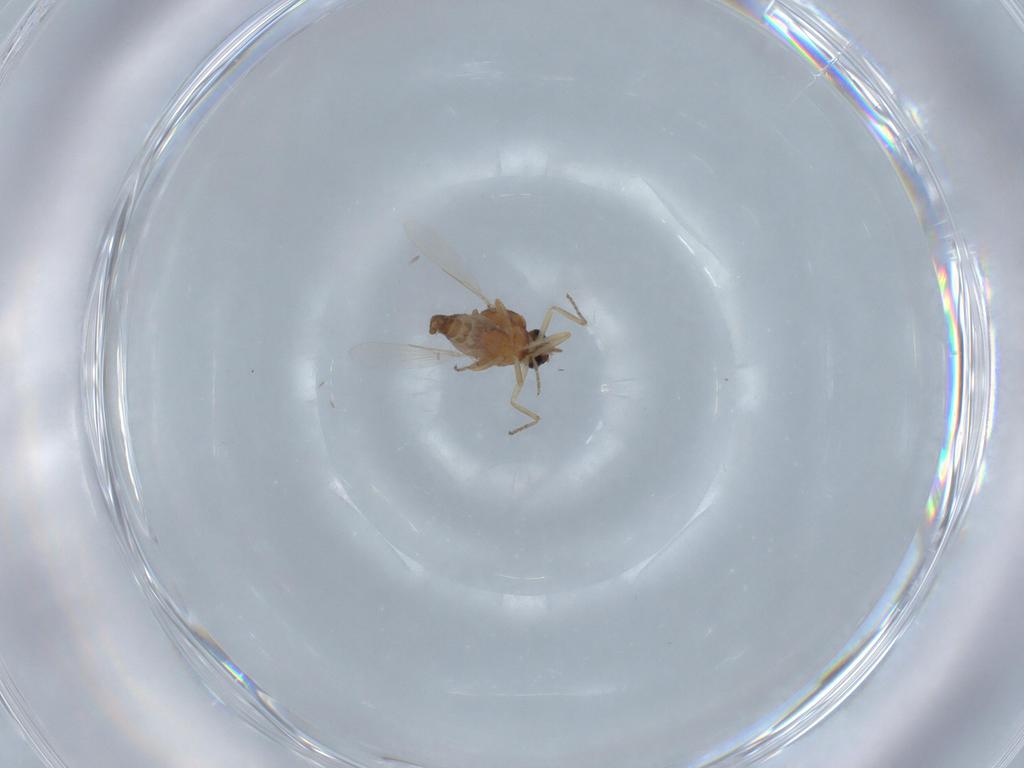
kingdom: Animalia
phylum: Arthropoda
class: Insecta
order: Diptera
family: Ceratopogonidae
